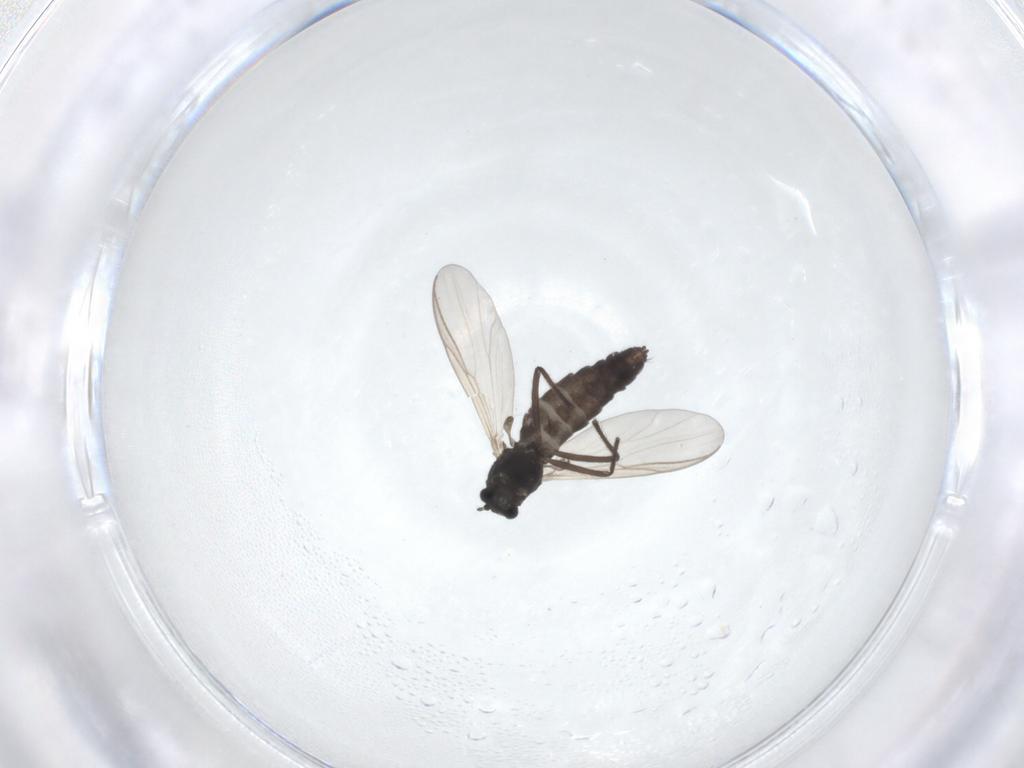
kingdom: Animalia
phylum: Arthropoda
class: Insecta
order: Diptera
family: Chironomidae
